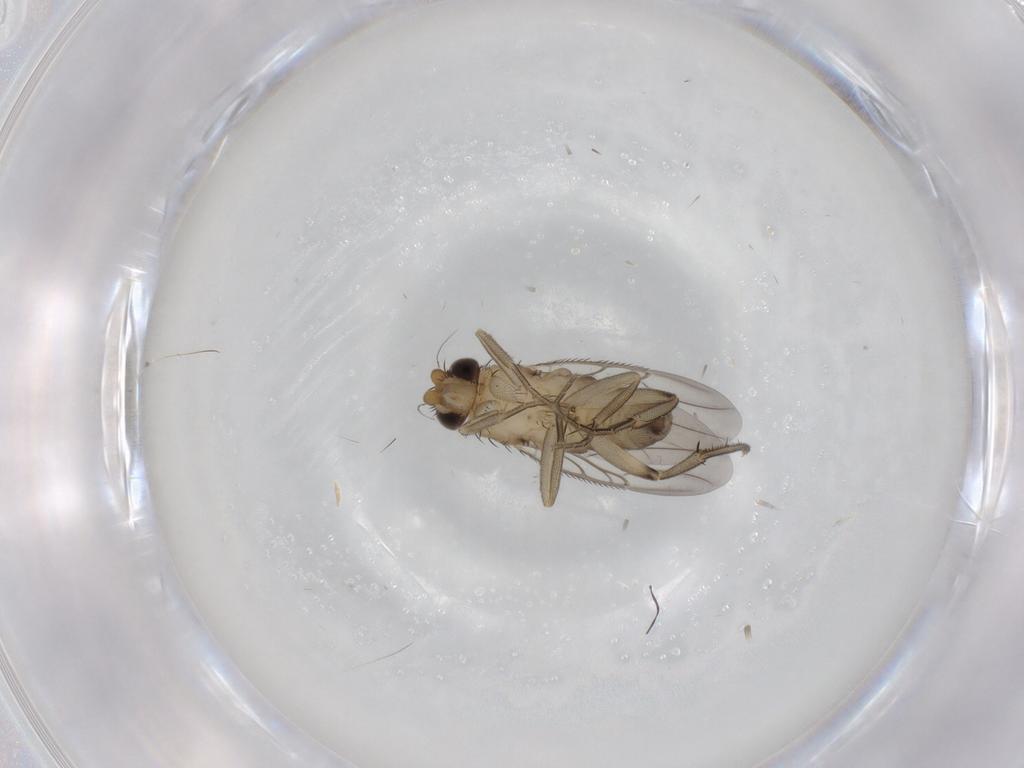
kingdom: Animalia
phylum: Arthropoda
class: Insecta
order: Diptera
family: Phoridae
